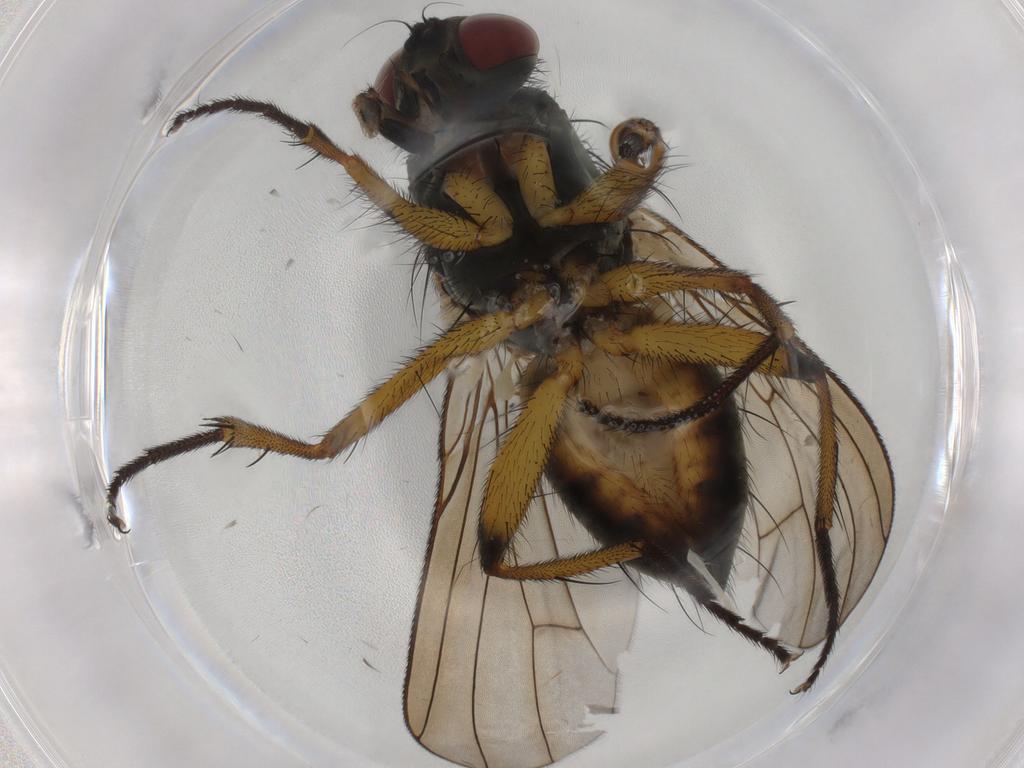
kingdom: Animalia
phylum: Arthropoda
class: Insecta
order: Diptera
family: Muscidae
